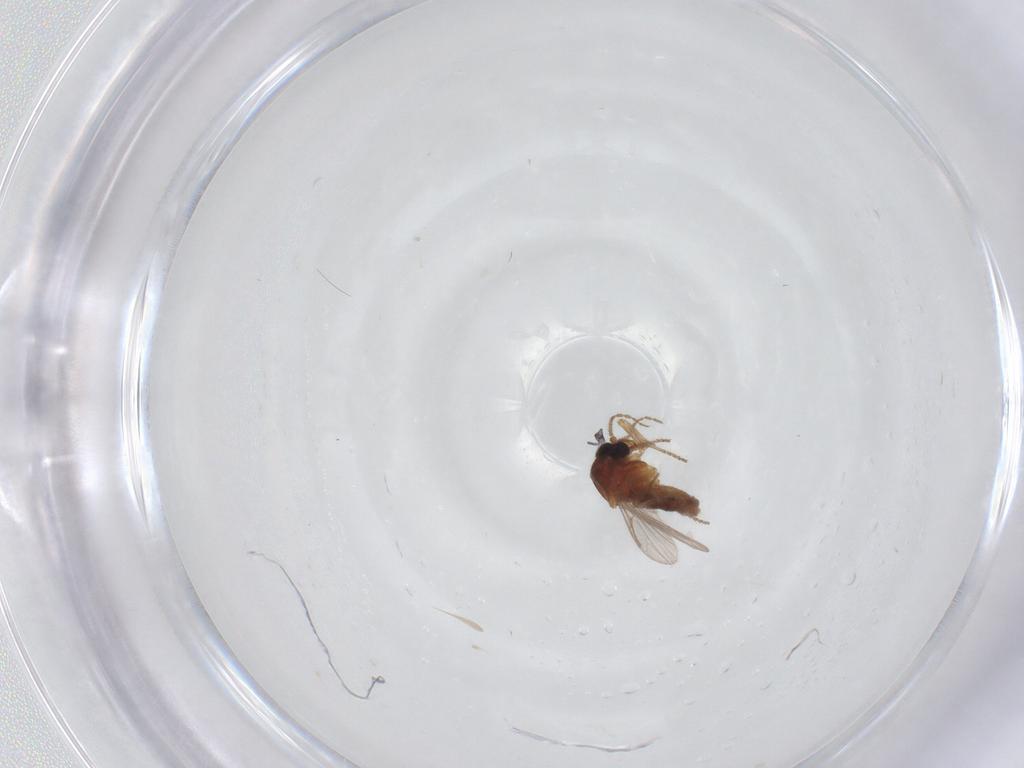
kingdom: Animalia
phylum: Arthropoda
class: Insecta
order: Diptera
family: Ceratopogonidae
